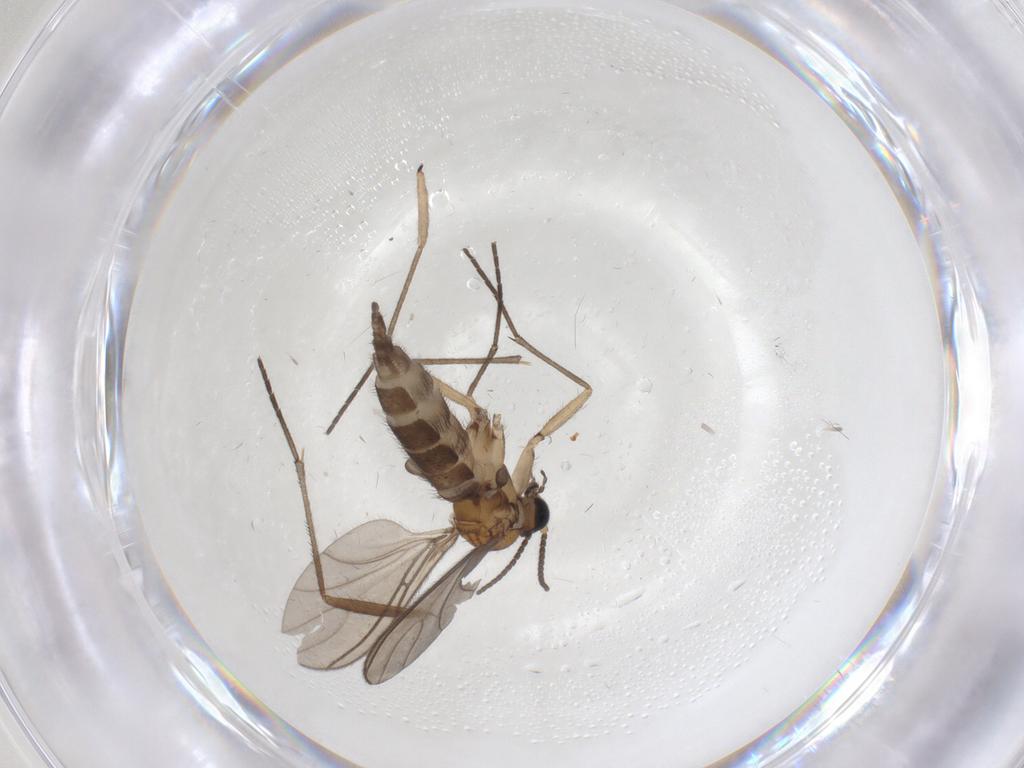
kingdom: Animalia
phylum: Arthropoda
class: Insecta
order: Diptera
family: Sciaridae
